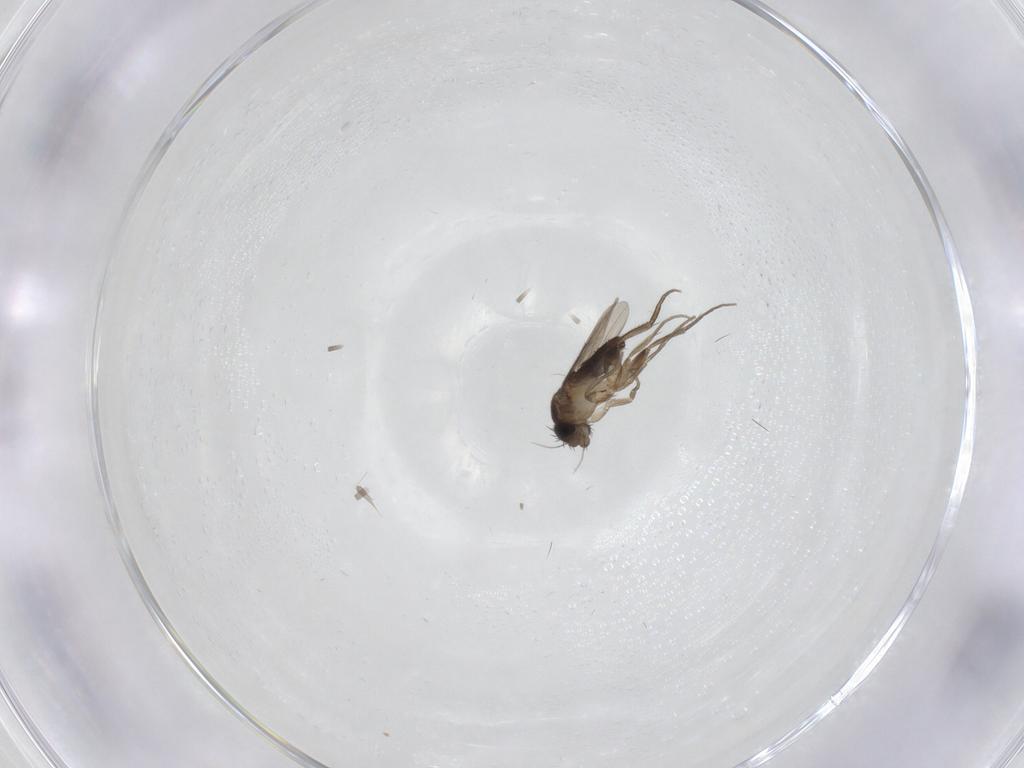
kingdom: Animalia
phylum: Arthropoda
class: Insecta
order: Diptera
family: Phoridae
